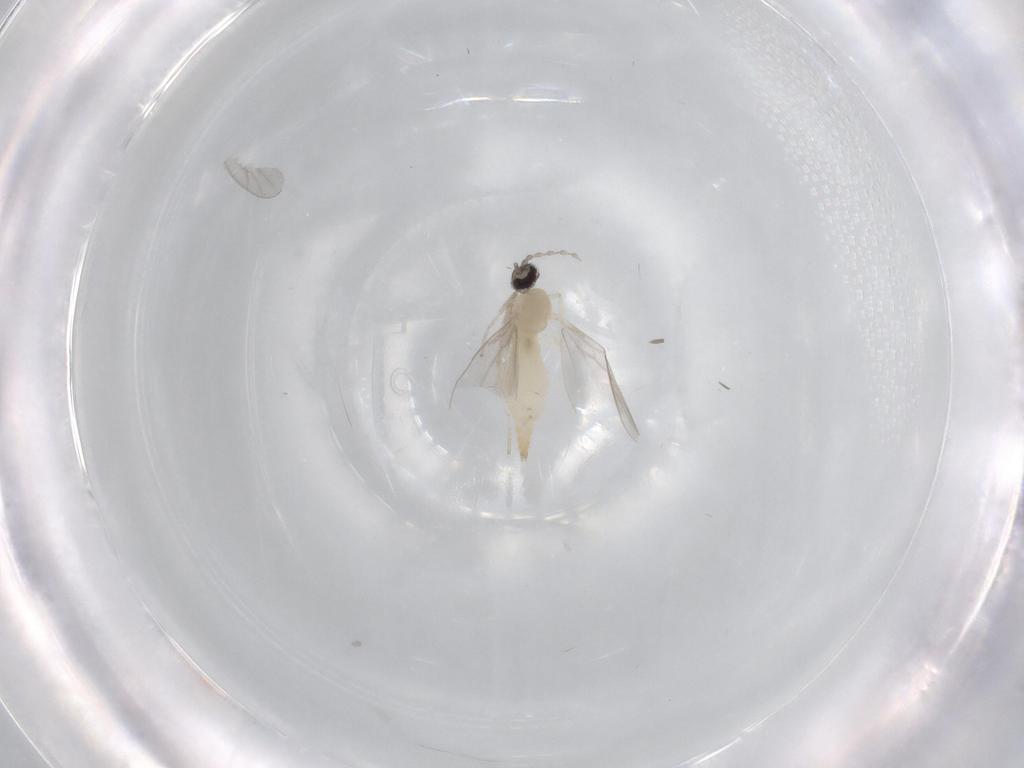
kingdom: Animalia
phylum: Arthropoda
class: Insecta
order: Diptera
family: Cecidomyiidae
